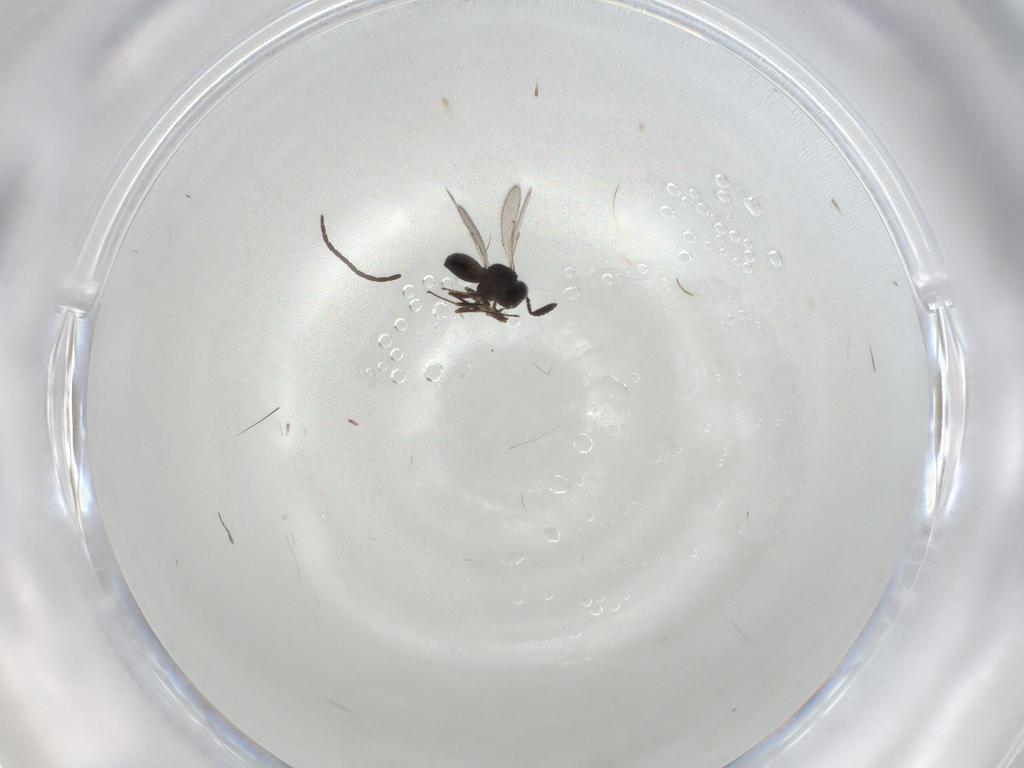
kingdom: Animalia
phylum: Arthropoda
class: Insecta
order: Hymenoptera
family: Scelionidae
